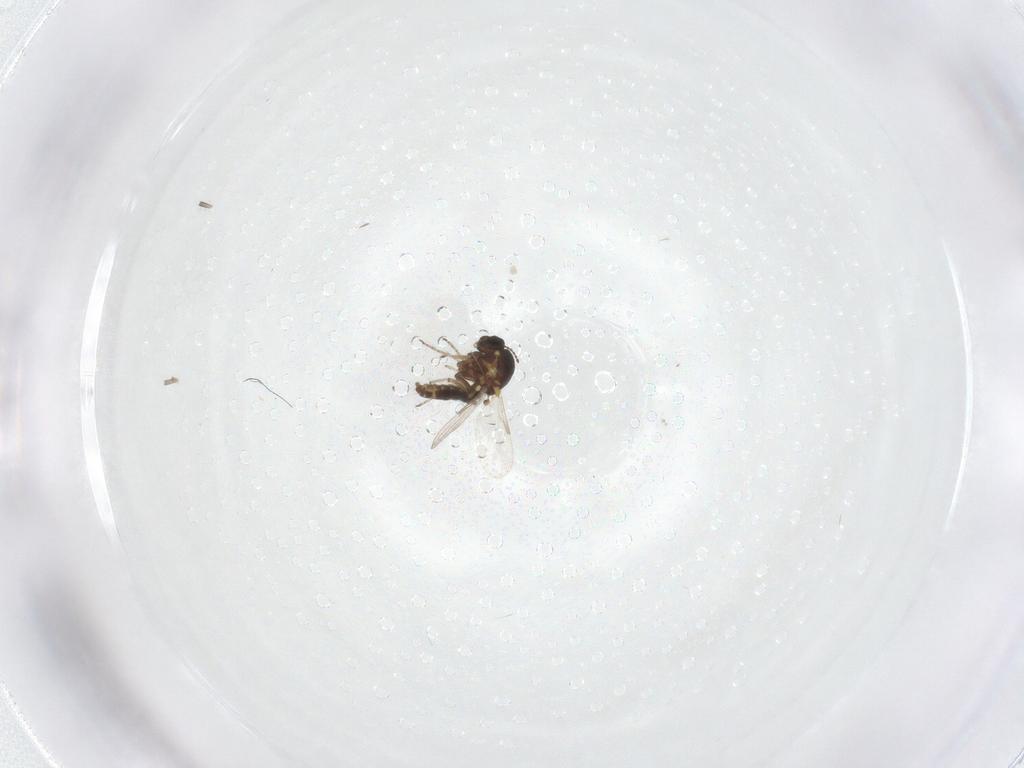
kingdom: Animalia
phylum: Arthropoda
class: Insecta
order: Diptera
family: Ceratopogonidae
